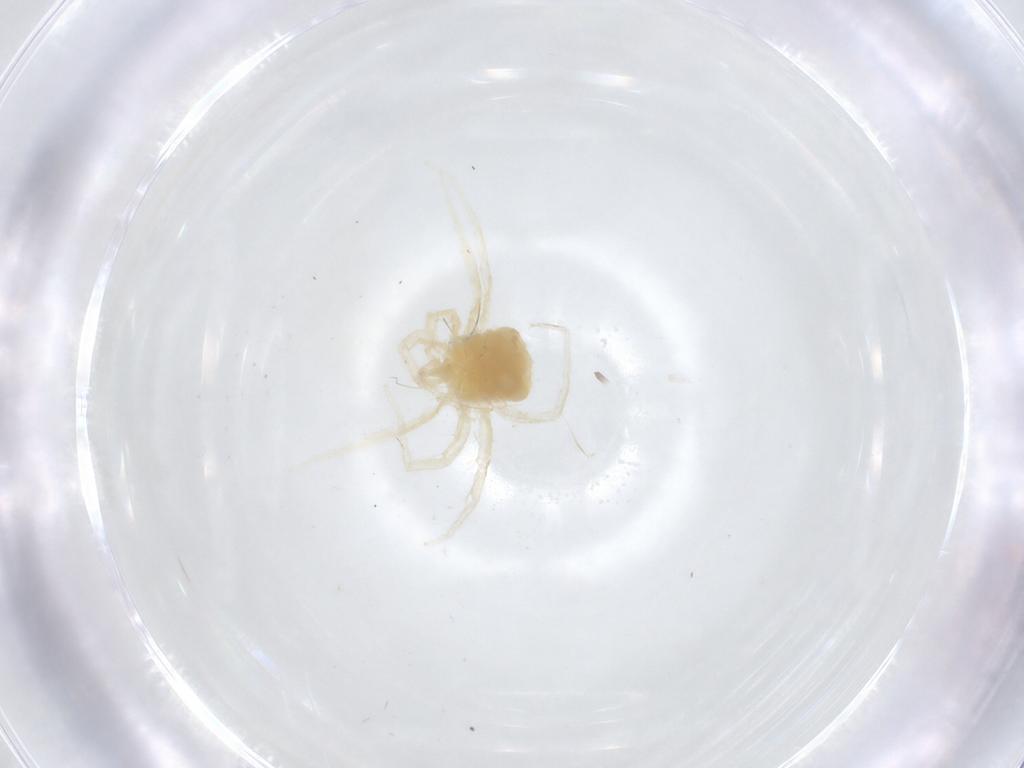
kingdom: Animalia
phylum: Arthropoda
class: Arachnida
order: Trombidiformes
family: Anystidae
